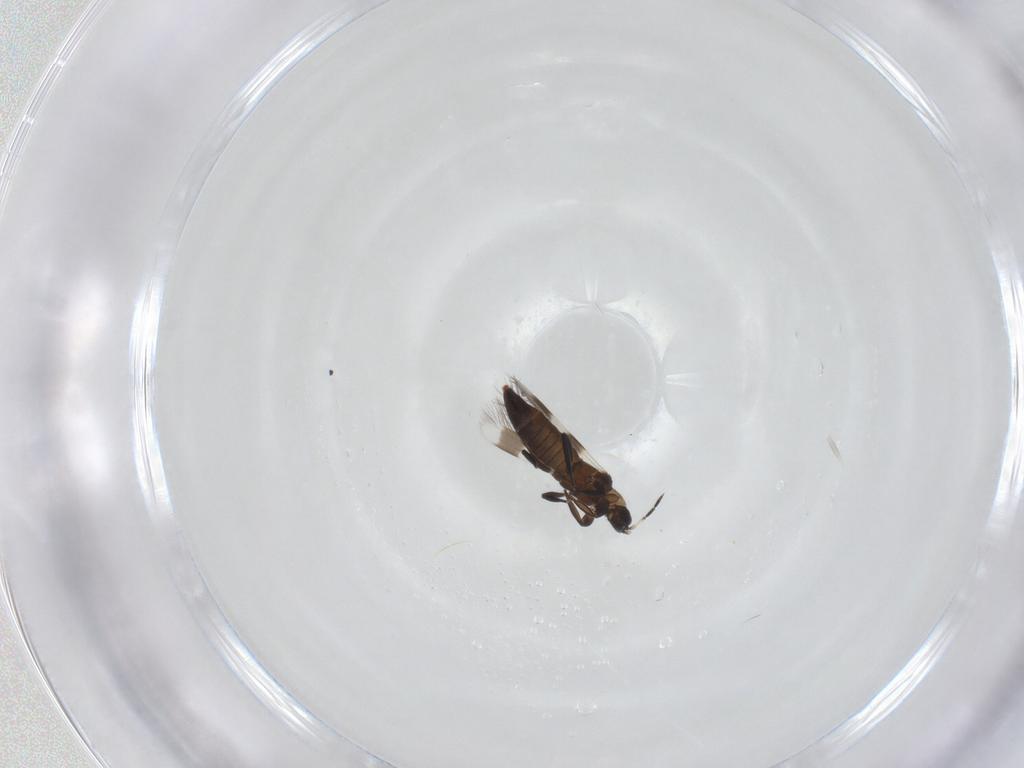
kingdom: Animalia
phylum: Arthropoda
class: Insecta
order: Thysanoptera
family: Aeolothripidae
